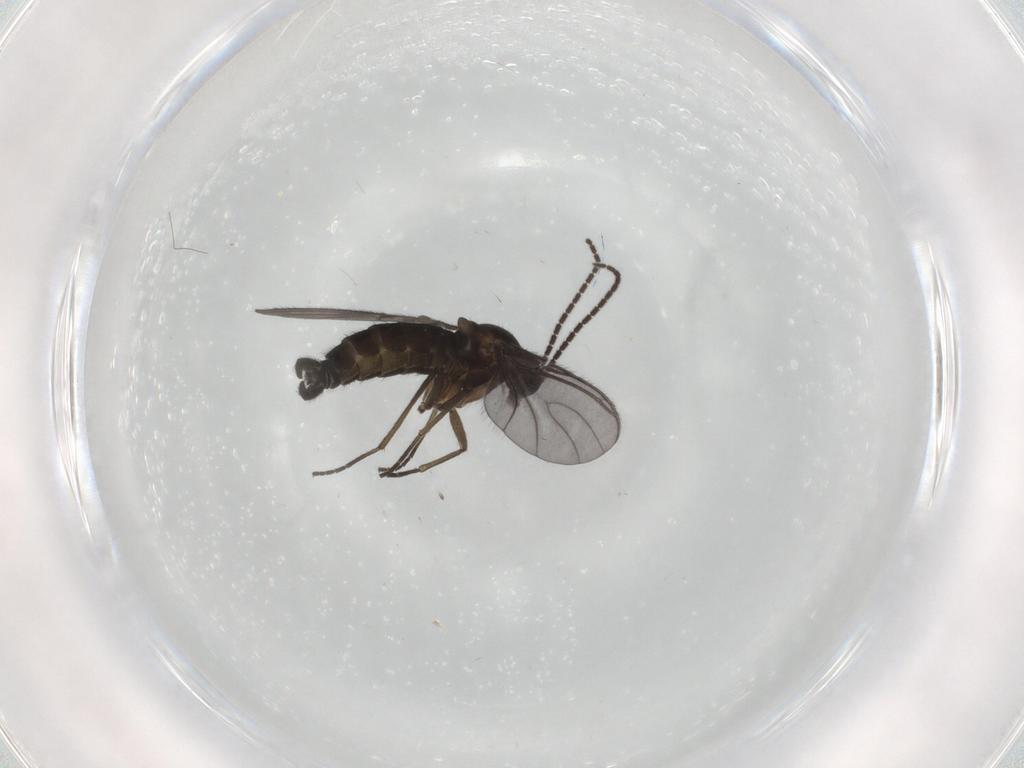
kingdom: Animalia
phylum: Arthropoda
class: Insecta
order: Diptera
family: Sciaridae
